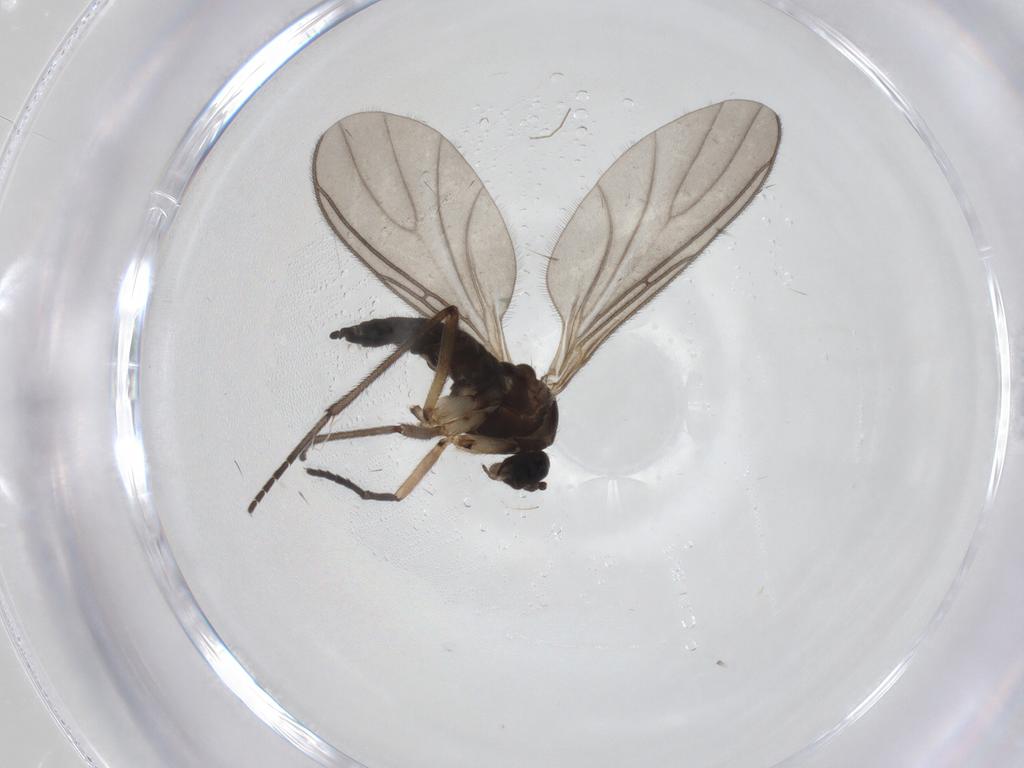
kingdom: Animalia
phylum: Arthropoda
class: Insecta
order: Diptera
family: Sciaridae
